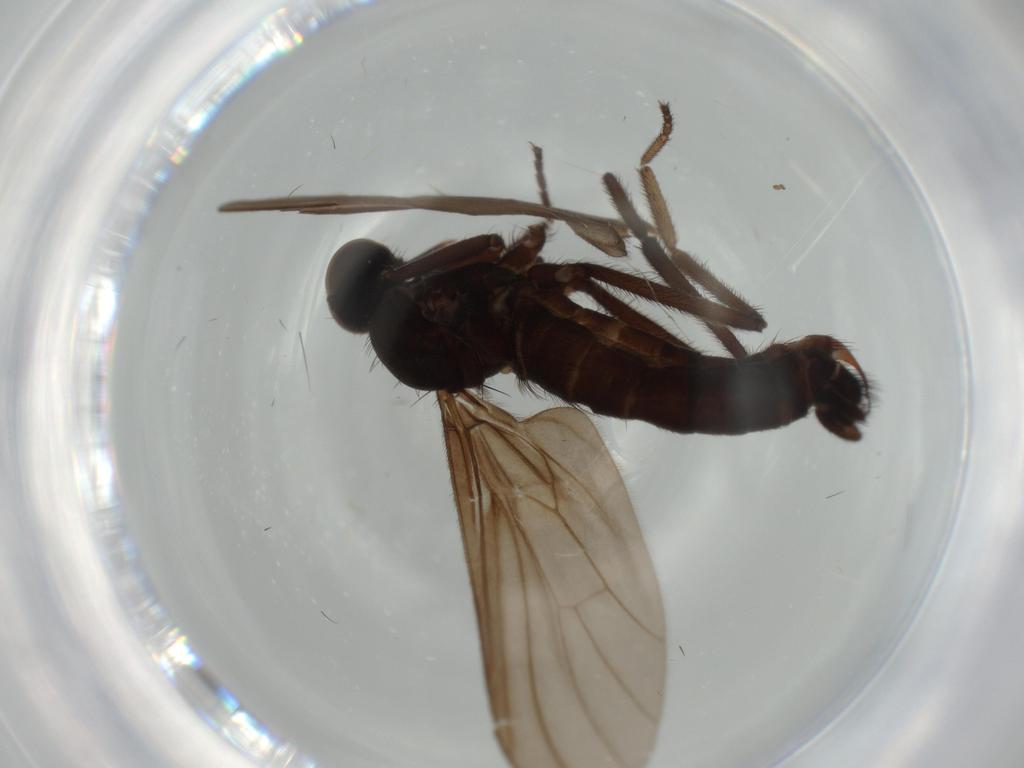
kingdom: Animalia
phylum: Arthropoda
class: Insecta
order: Diptera
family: Empididae
